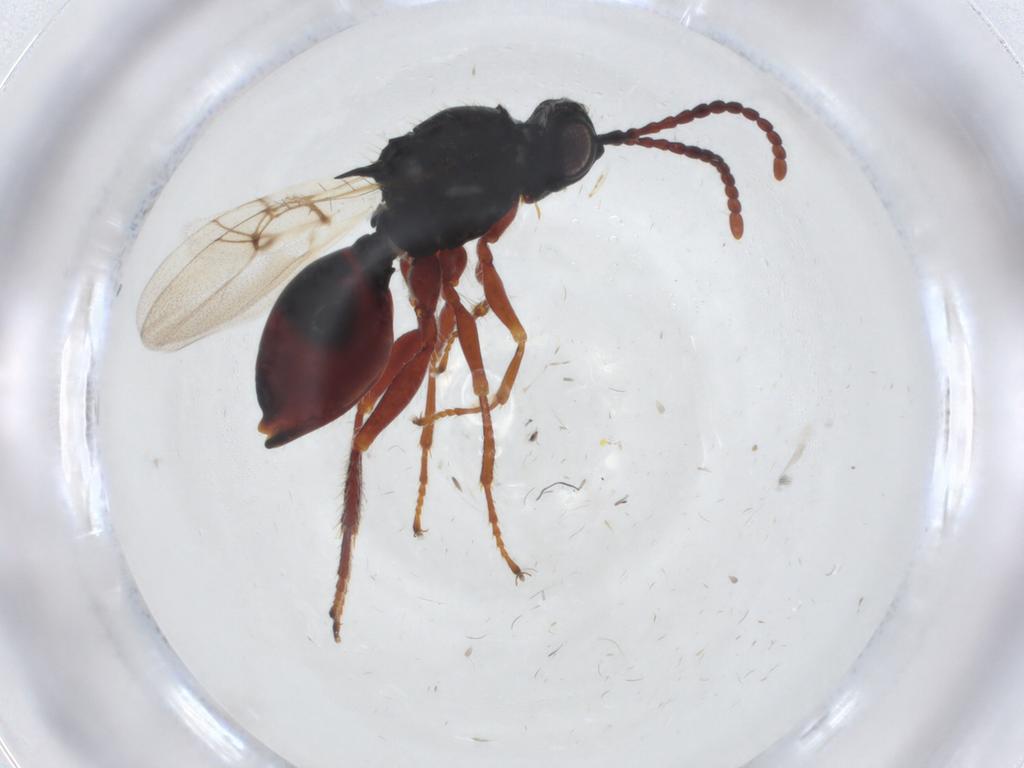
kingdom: Animalia
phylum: Arthropoda
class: Insecta
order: Hymenoptera
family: Figitidae
